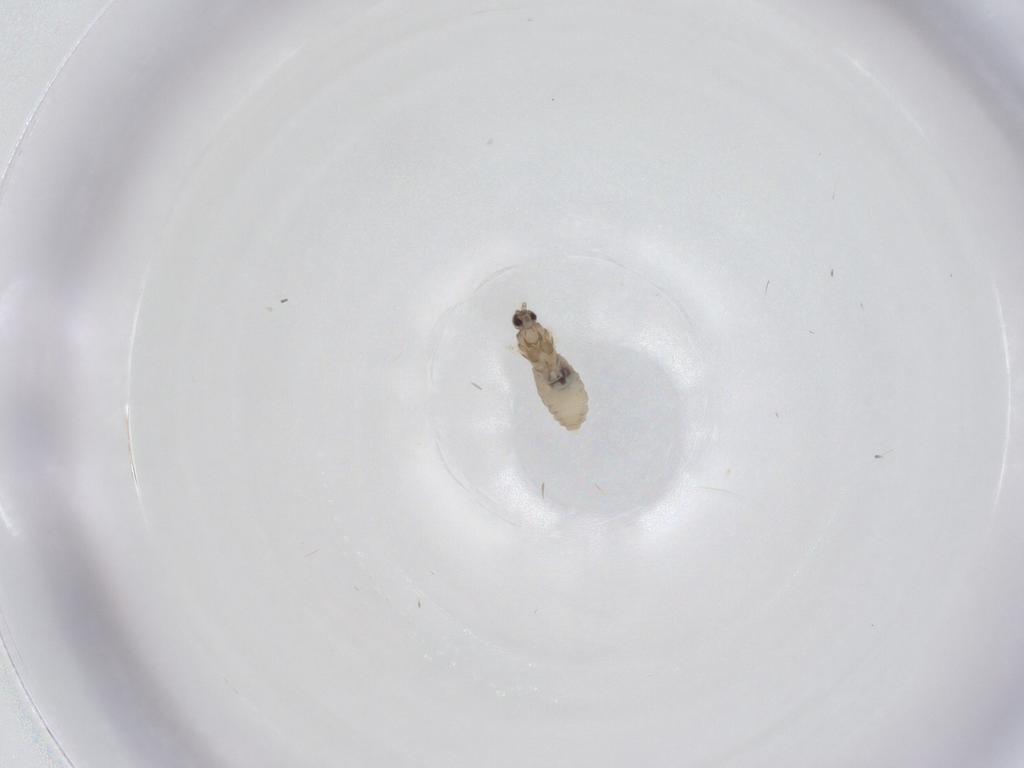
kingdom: Animalia
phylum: Arthropoda
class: Insecta
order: Diptera
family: Cecidomyiidae
